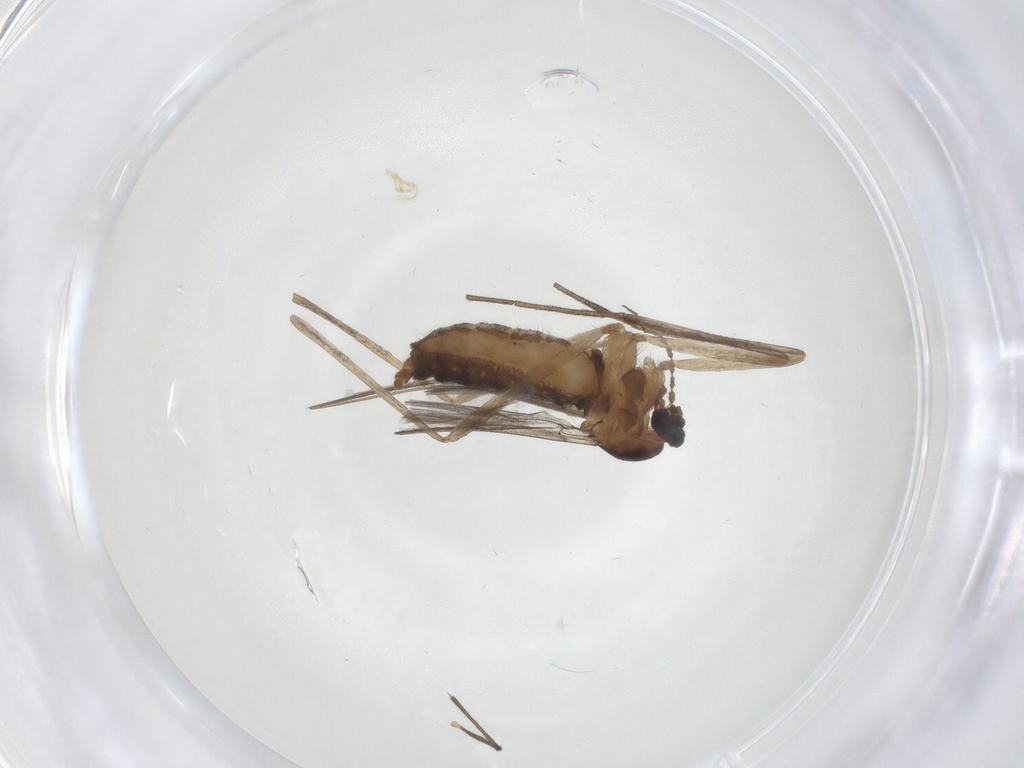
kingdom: Animalia
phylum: Arthropoda
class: Insecta
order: Diptera
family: Cecidomyiidae
